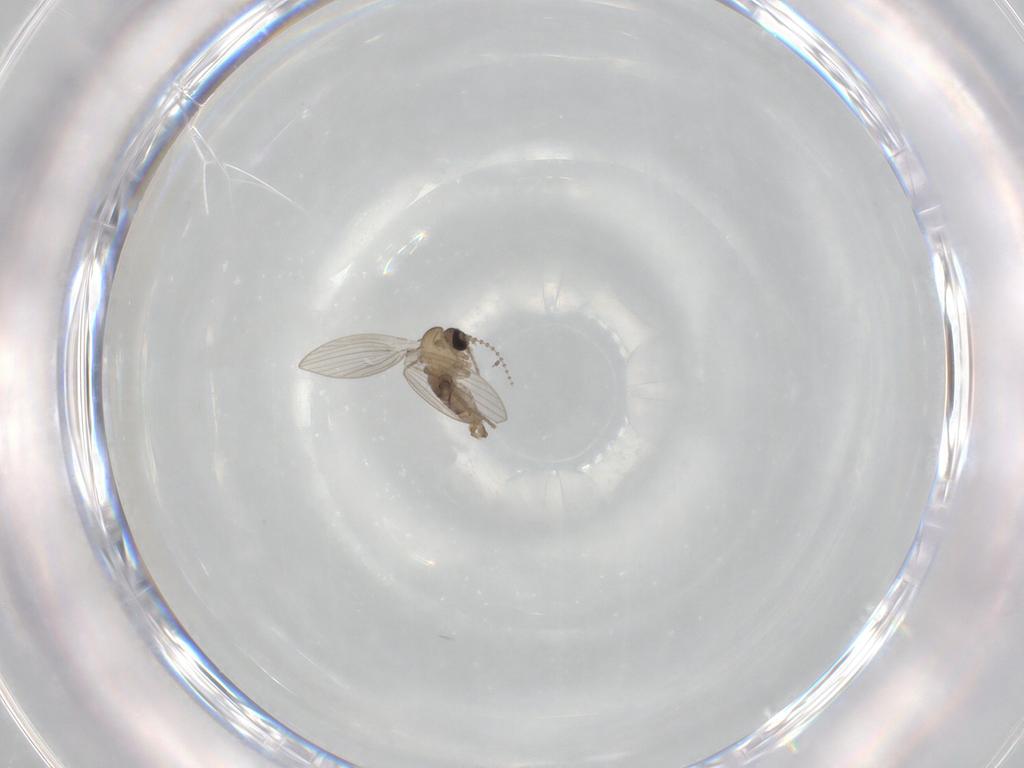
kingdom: Animalia
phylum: Arthropoda
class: Insecta
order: Diptera
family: Psychodidae
